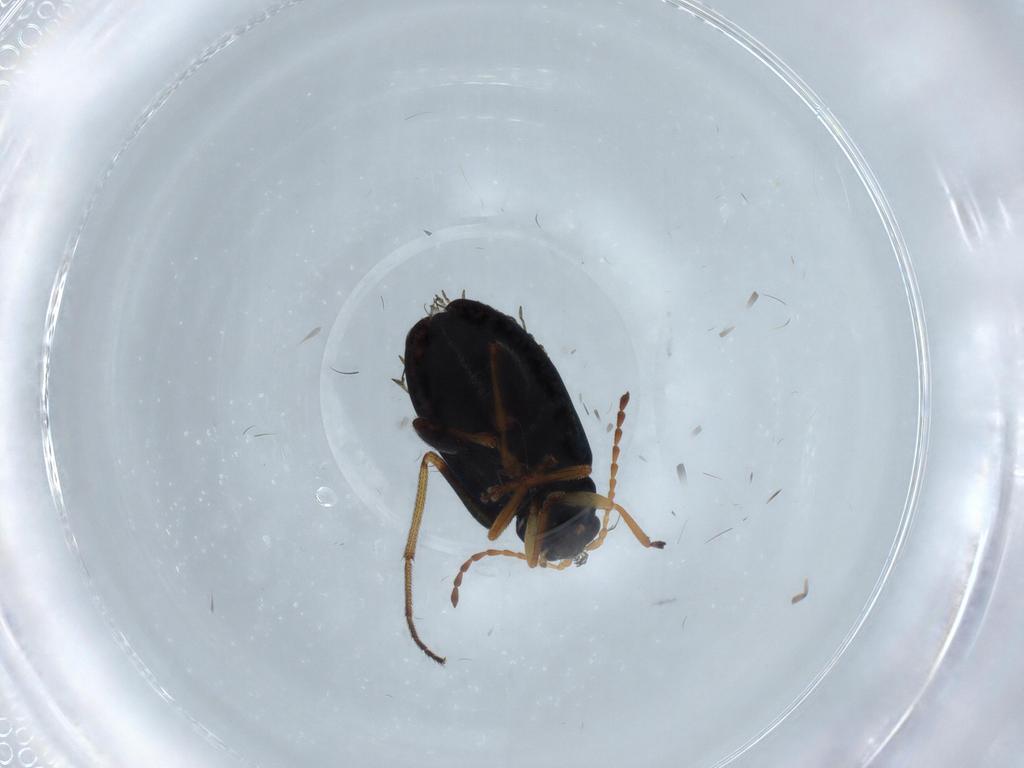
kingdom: Animalia
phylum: Arthropoda
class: Insecta
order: Coleoptera
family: Chrysomelidae
